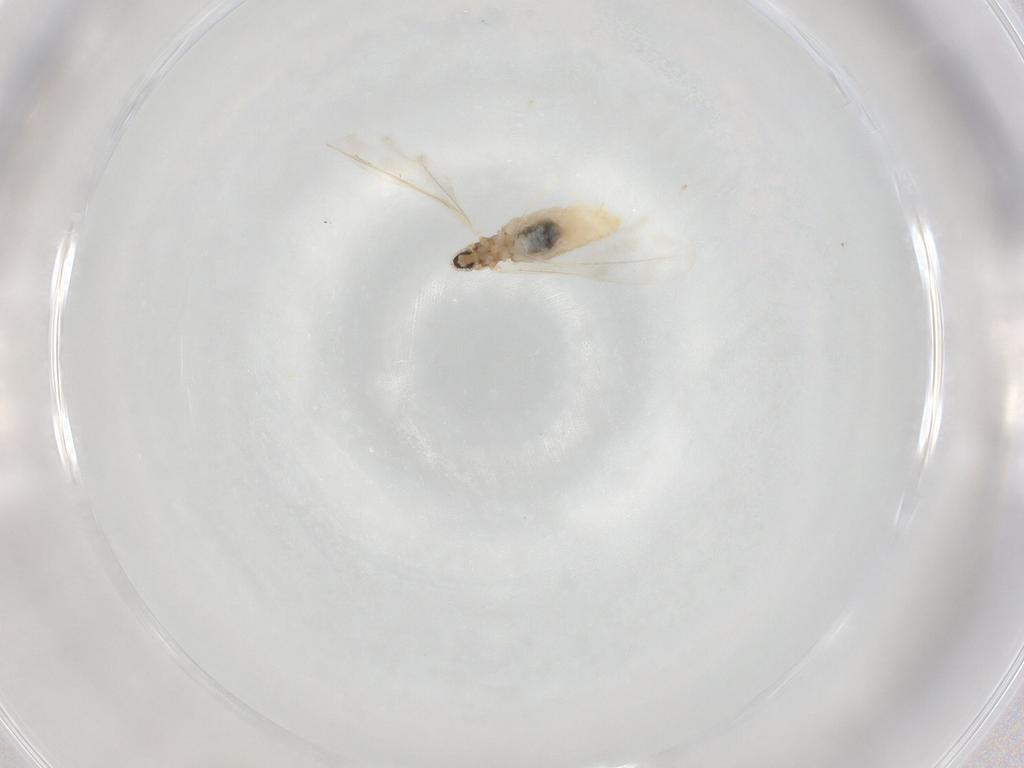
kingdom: Animalia
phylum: Arthropoda
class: Insecta
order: Diptera
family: Cecidomyiidae
